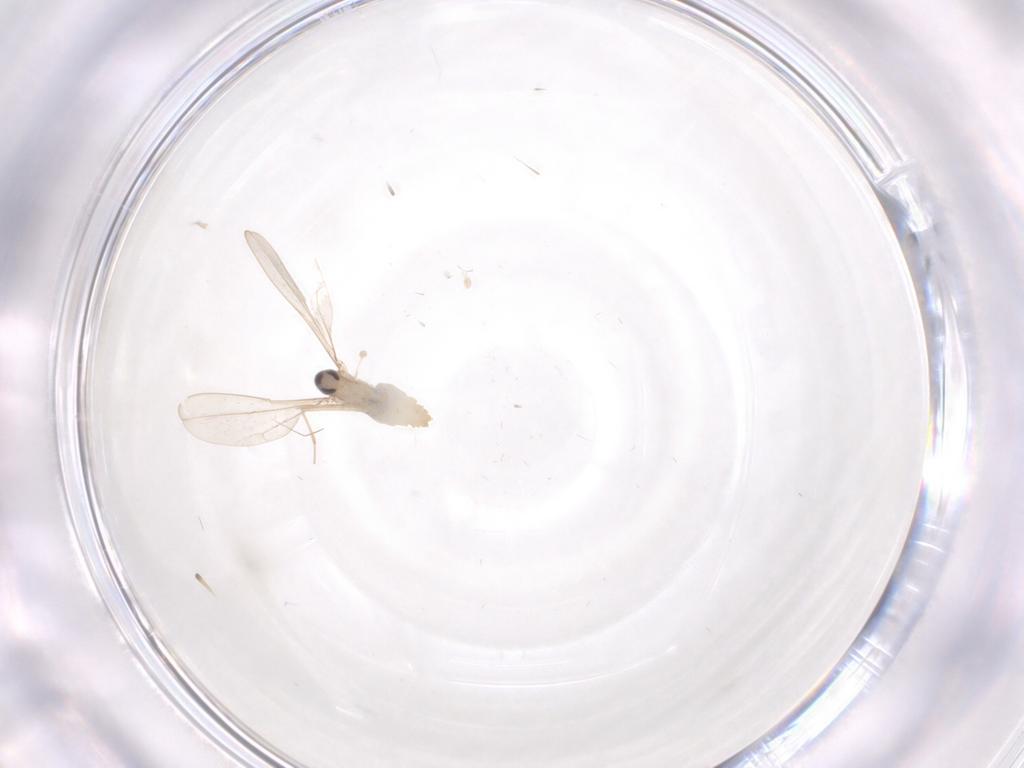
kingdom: Animalia
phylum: Arthropoda
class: Insecta
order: Diptera
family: Cecidomyiidae
